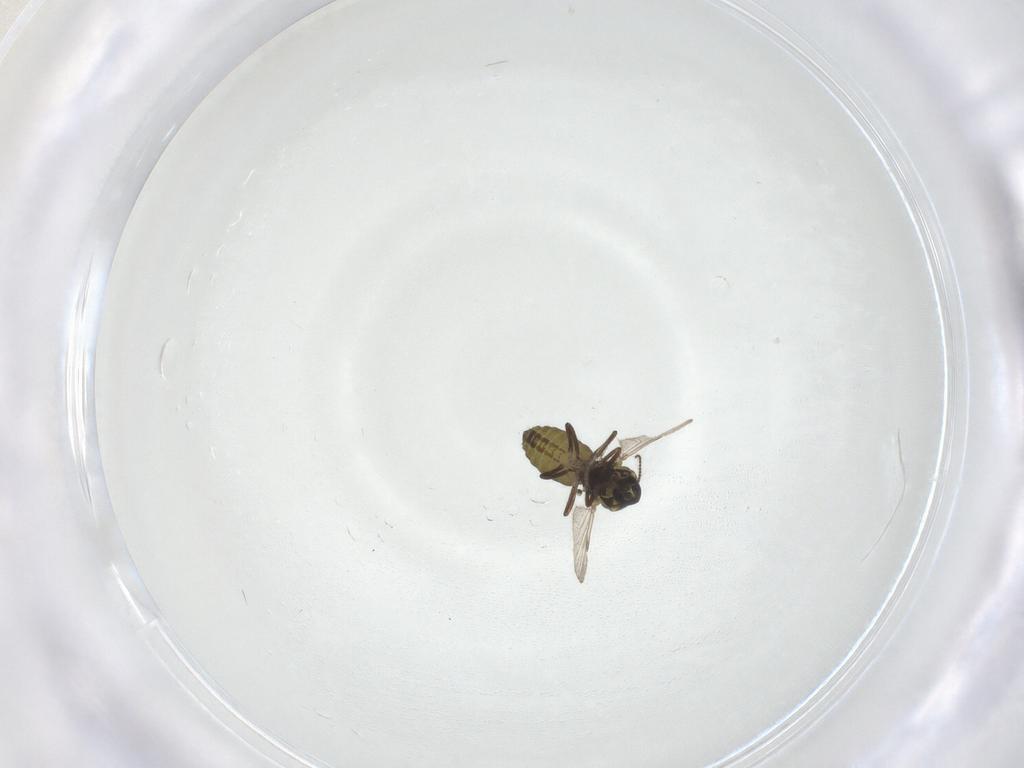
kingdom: Animalia
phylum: Arthropoda
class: Insecta
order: Diptera
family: Ceratopogonidae
